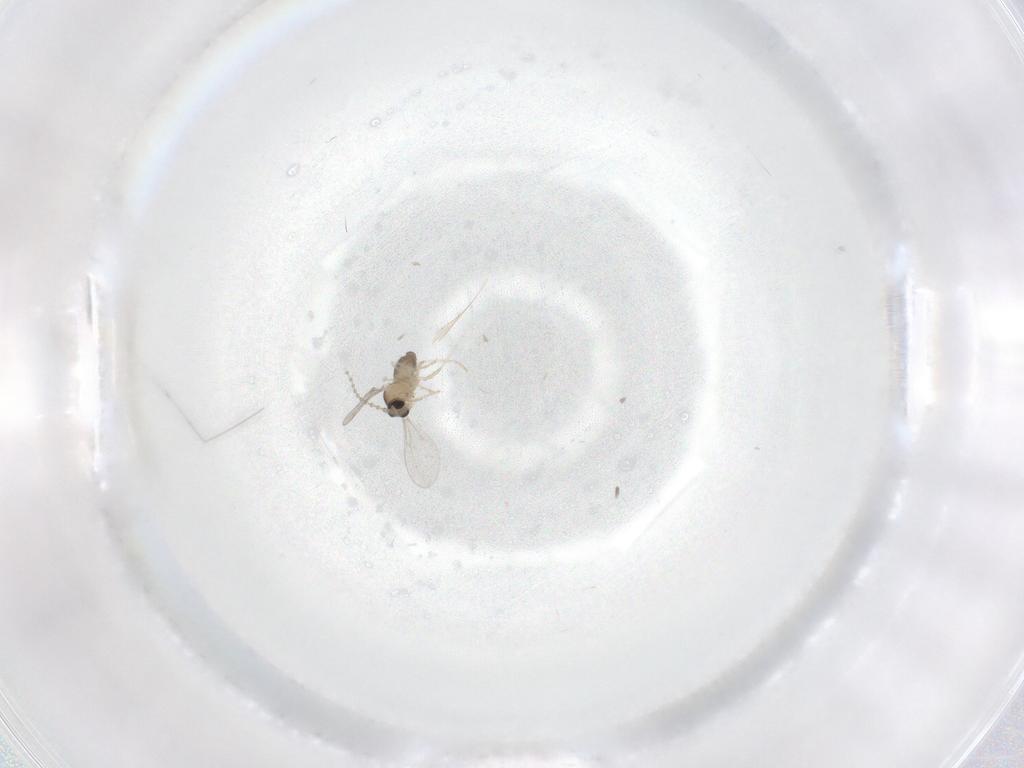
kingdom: Animalia
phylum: Arthropoda
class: Insecta
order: Diptera
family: Cecidomyiidae
